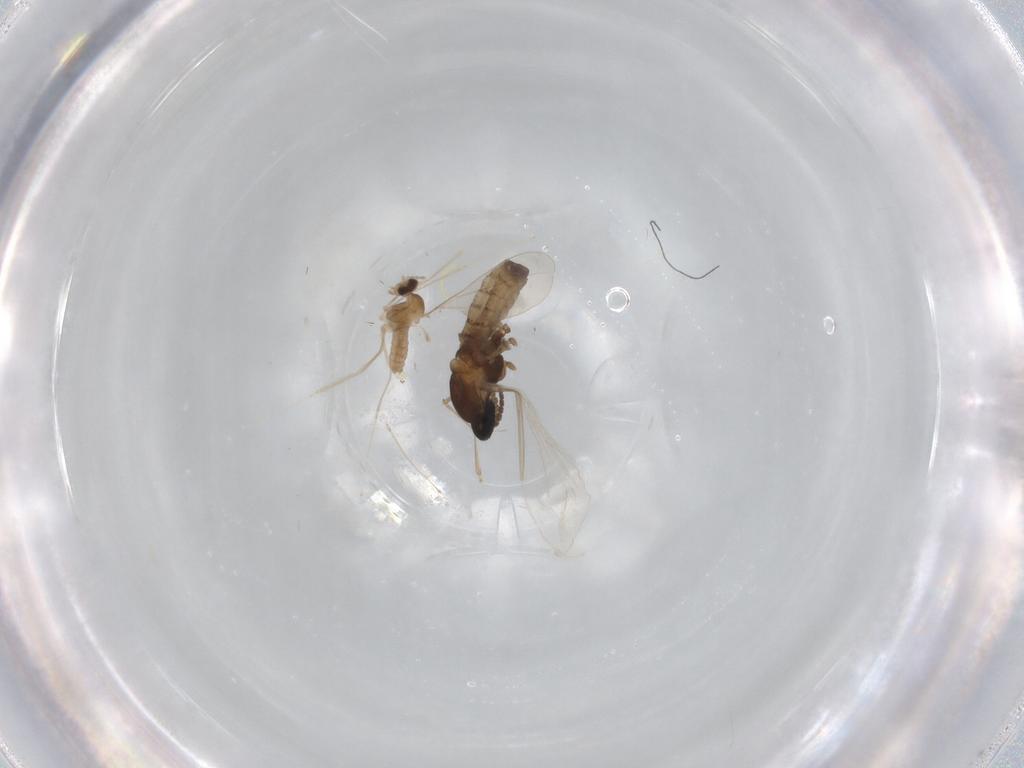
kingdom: Animalia
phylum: Arthropoda
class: Insecta
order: Diptera
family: Cecidomyiidae
